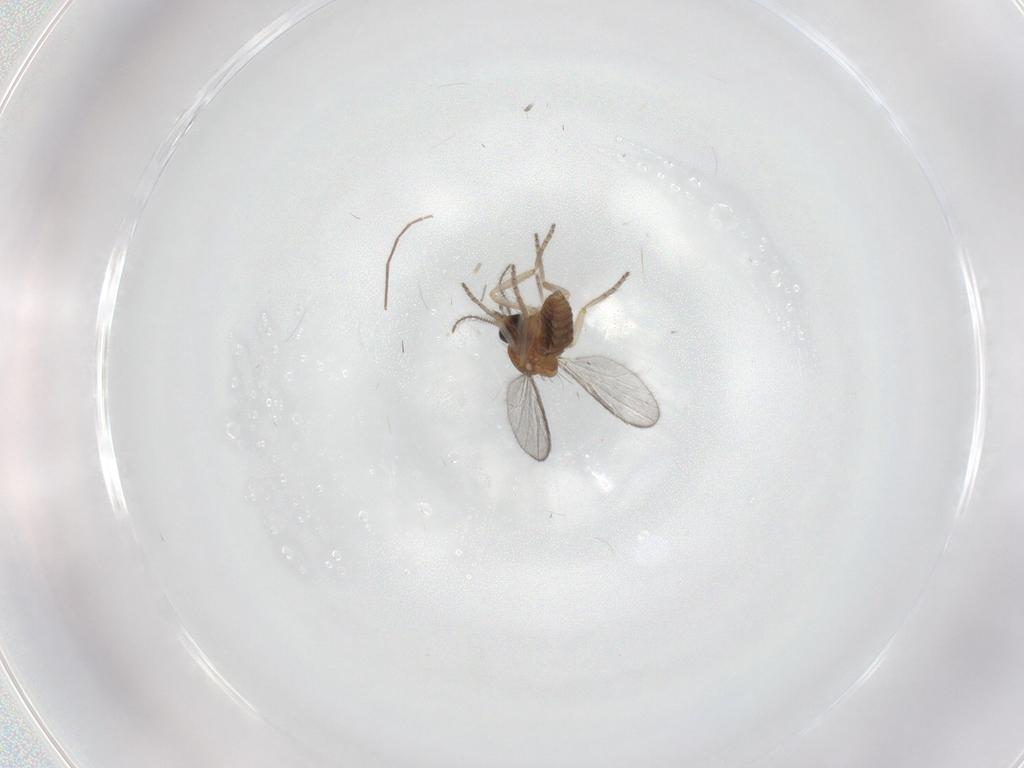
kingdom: Animalia
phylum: Arthropoda
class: Insecta
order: Diptera
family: Ceratopogonidae
